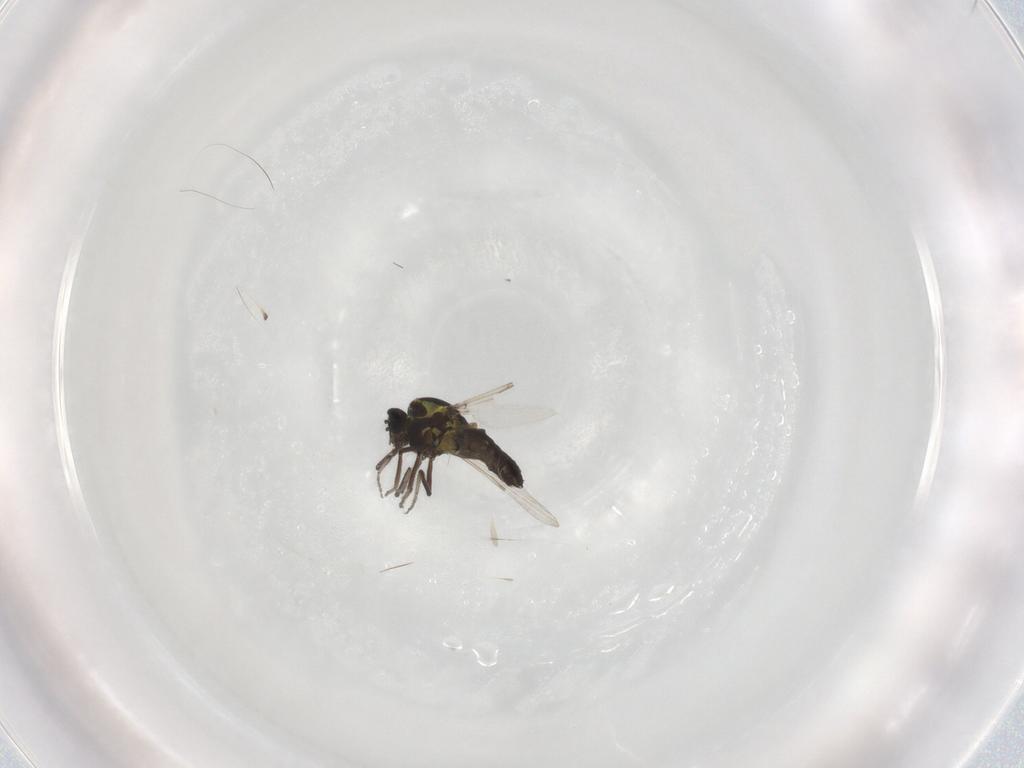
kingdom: Animalia
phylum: Arthropoda
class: Insecta
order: Diptera
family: Ceratopogonidae
